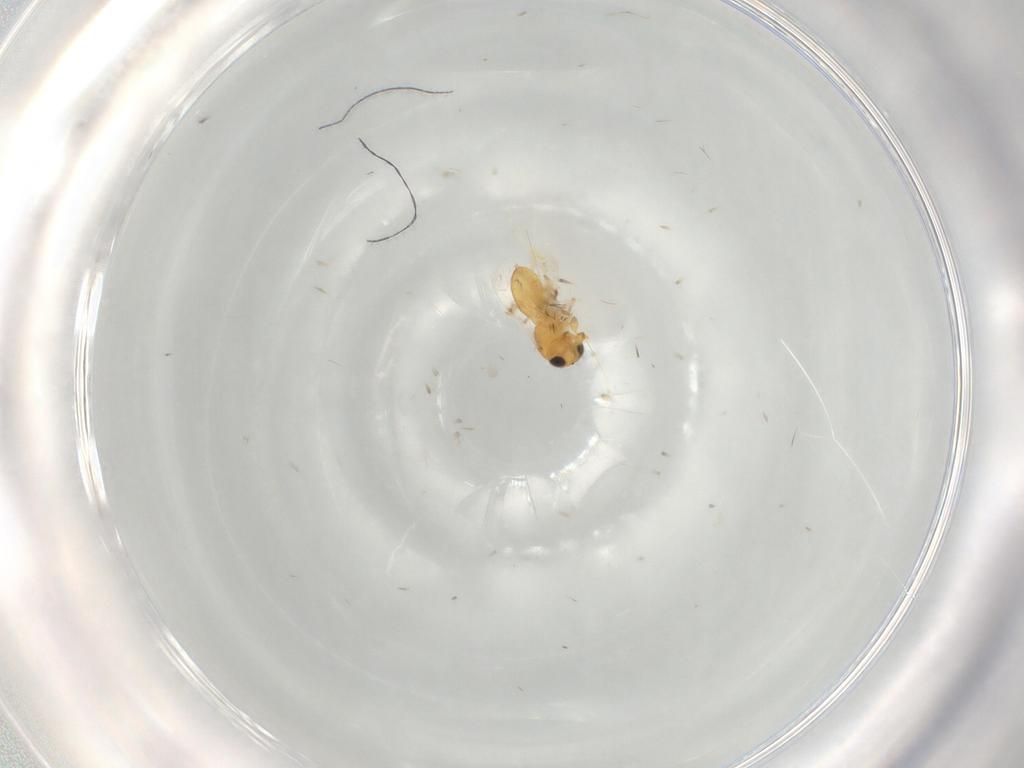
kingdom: Animalia
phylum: Arthropoda
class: Insecta
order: Hymenoptera
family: Scelionidae
